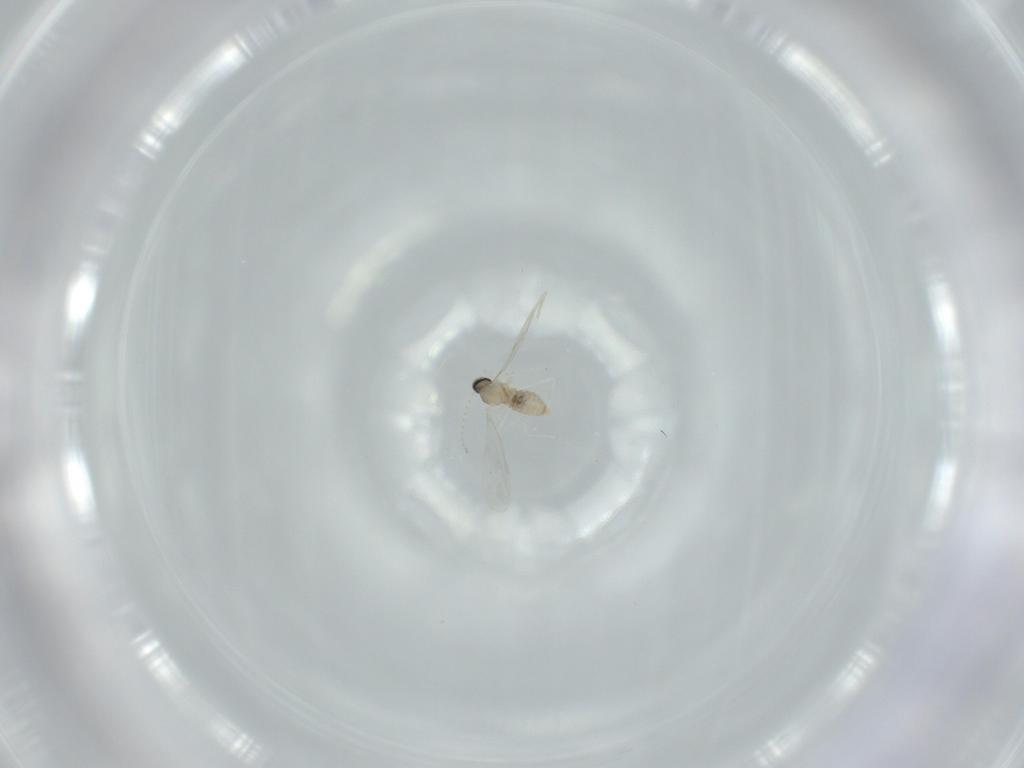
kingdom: Animalia
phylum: Arthropoda
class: Insecta
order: Diptera
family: Cecidomyiidae
